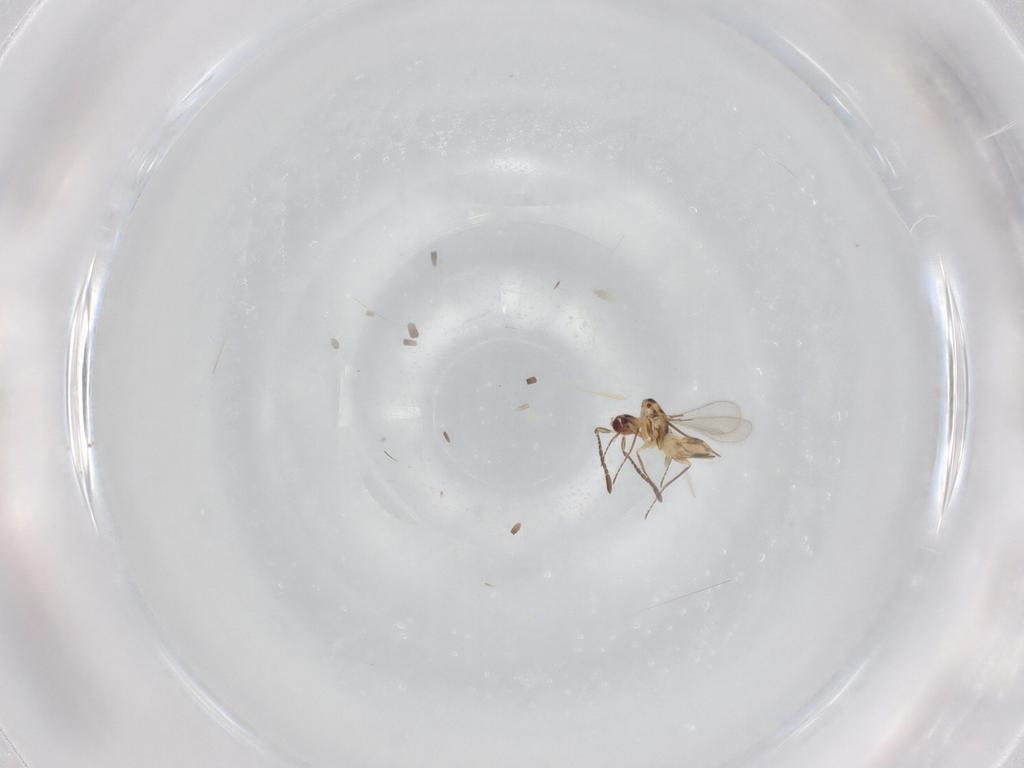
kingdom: Animalia
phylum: Arthropoda
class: Insecta
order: Hymenoptera
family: Mymaridae
